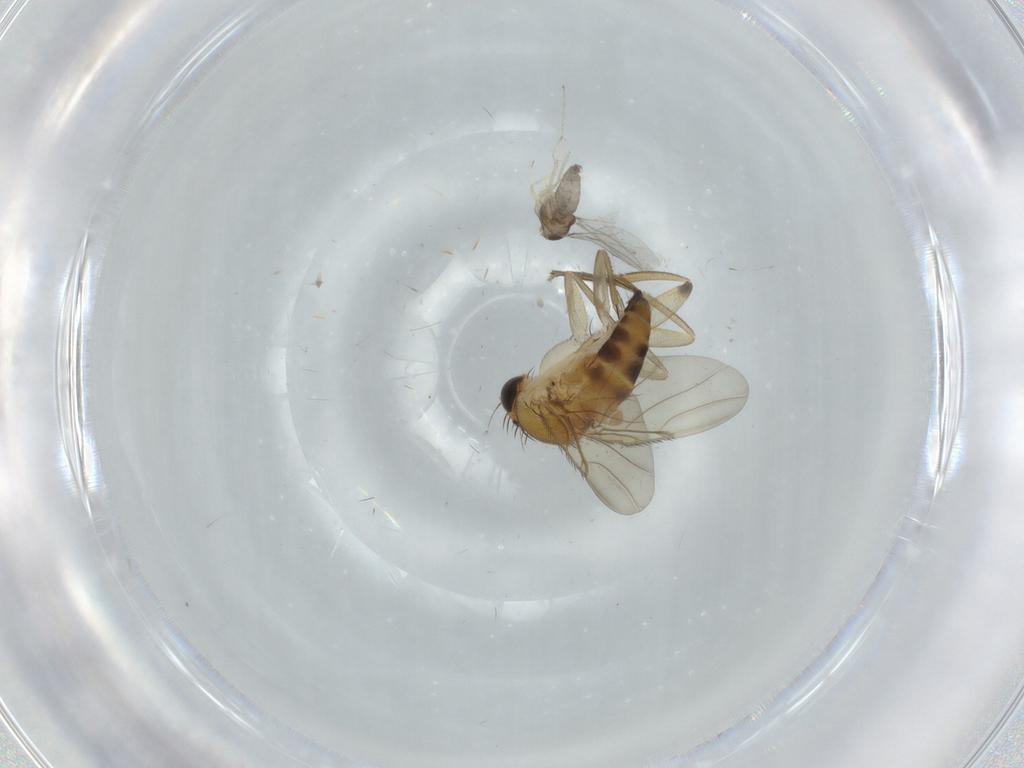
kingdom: Animalia
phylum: Arthropoda
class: Insecta
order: Diptera
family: Cecidomyiidae
